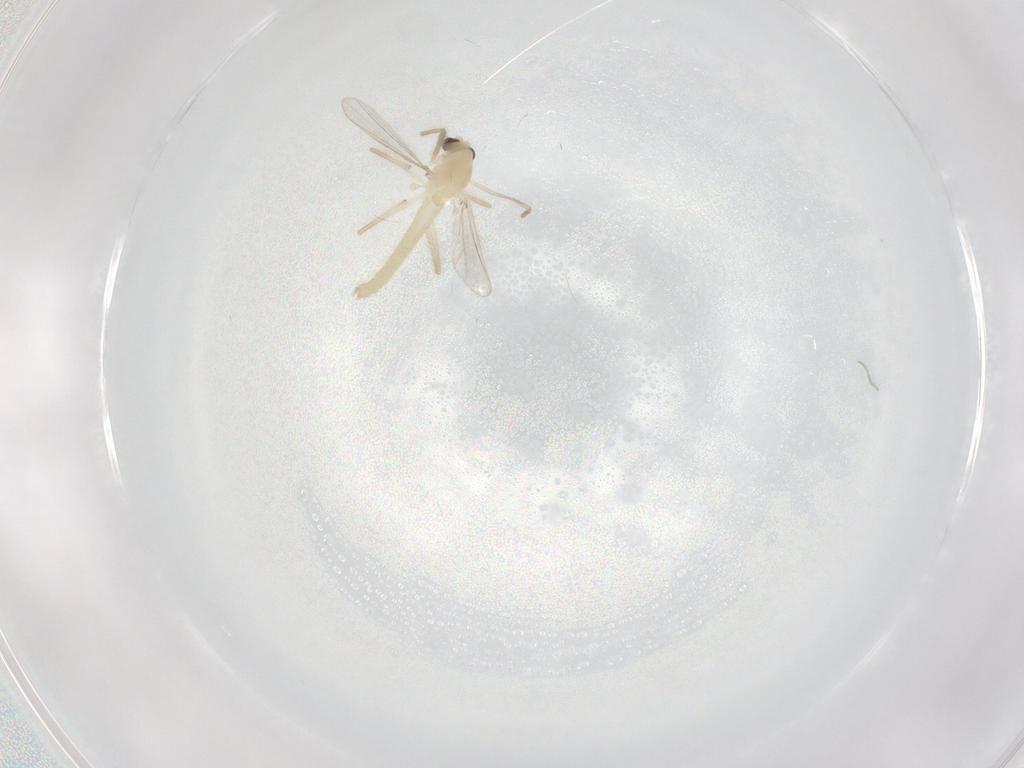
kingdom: Animalia
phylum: Arthropoda
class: Insecta
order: Diptera
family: Chironomidae
